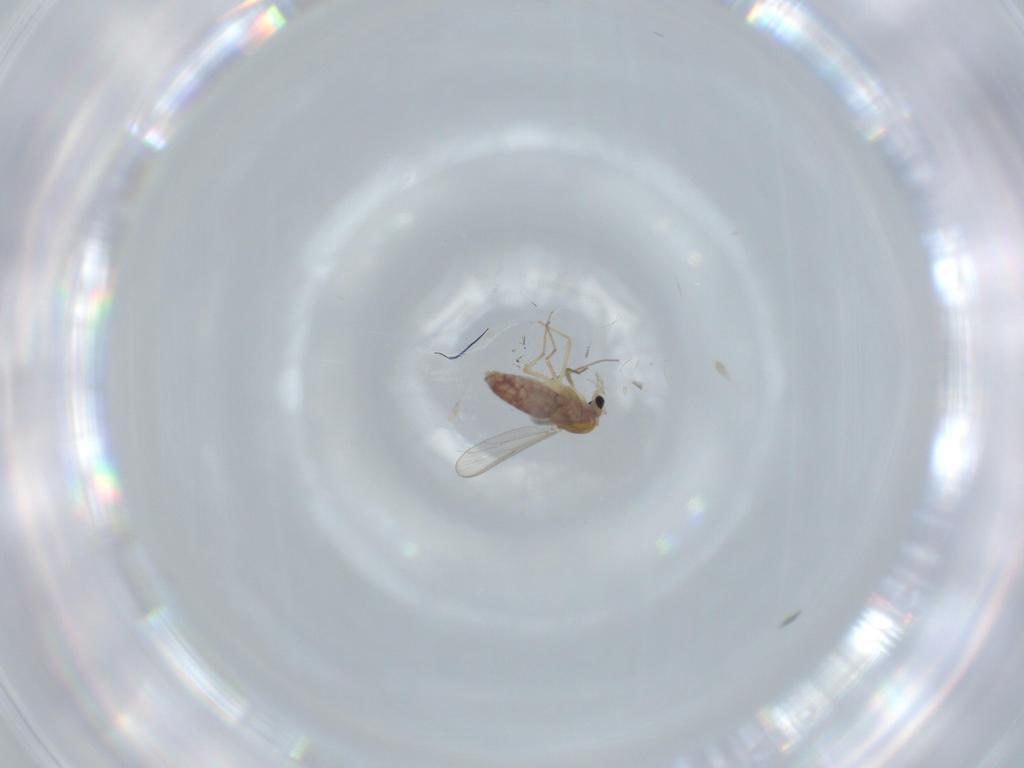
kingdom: Animalia
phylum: Arthropoda
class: Insecta
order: Diptera
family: Chironomidae
